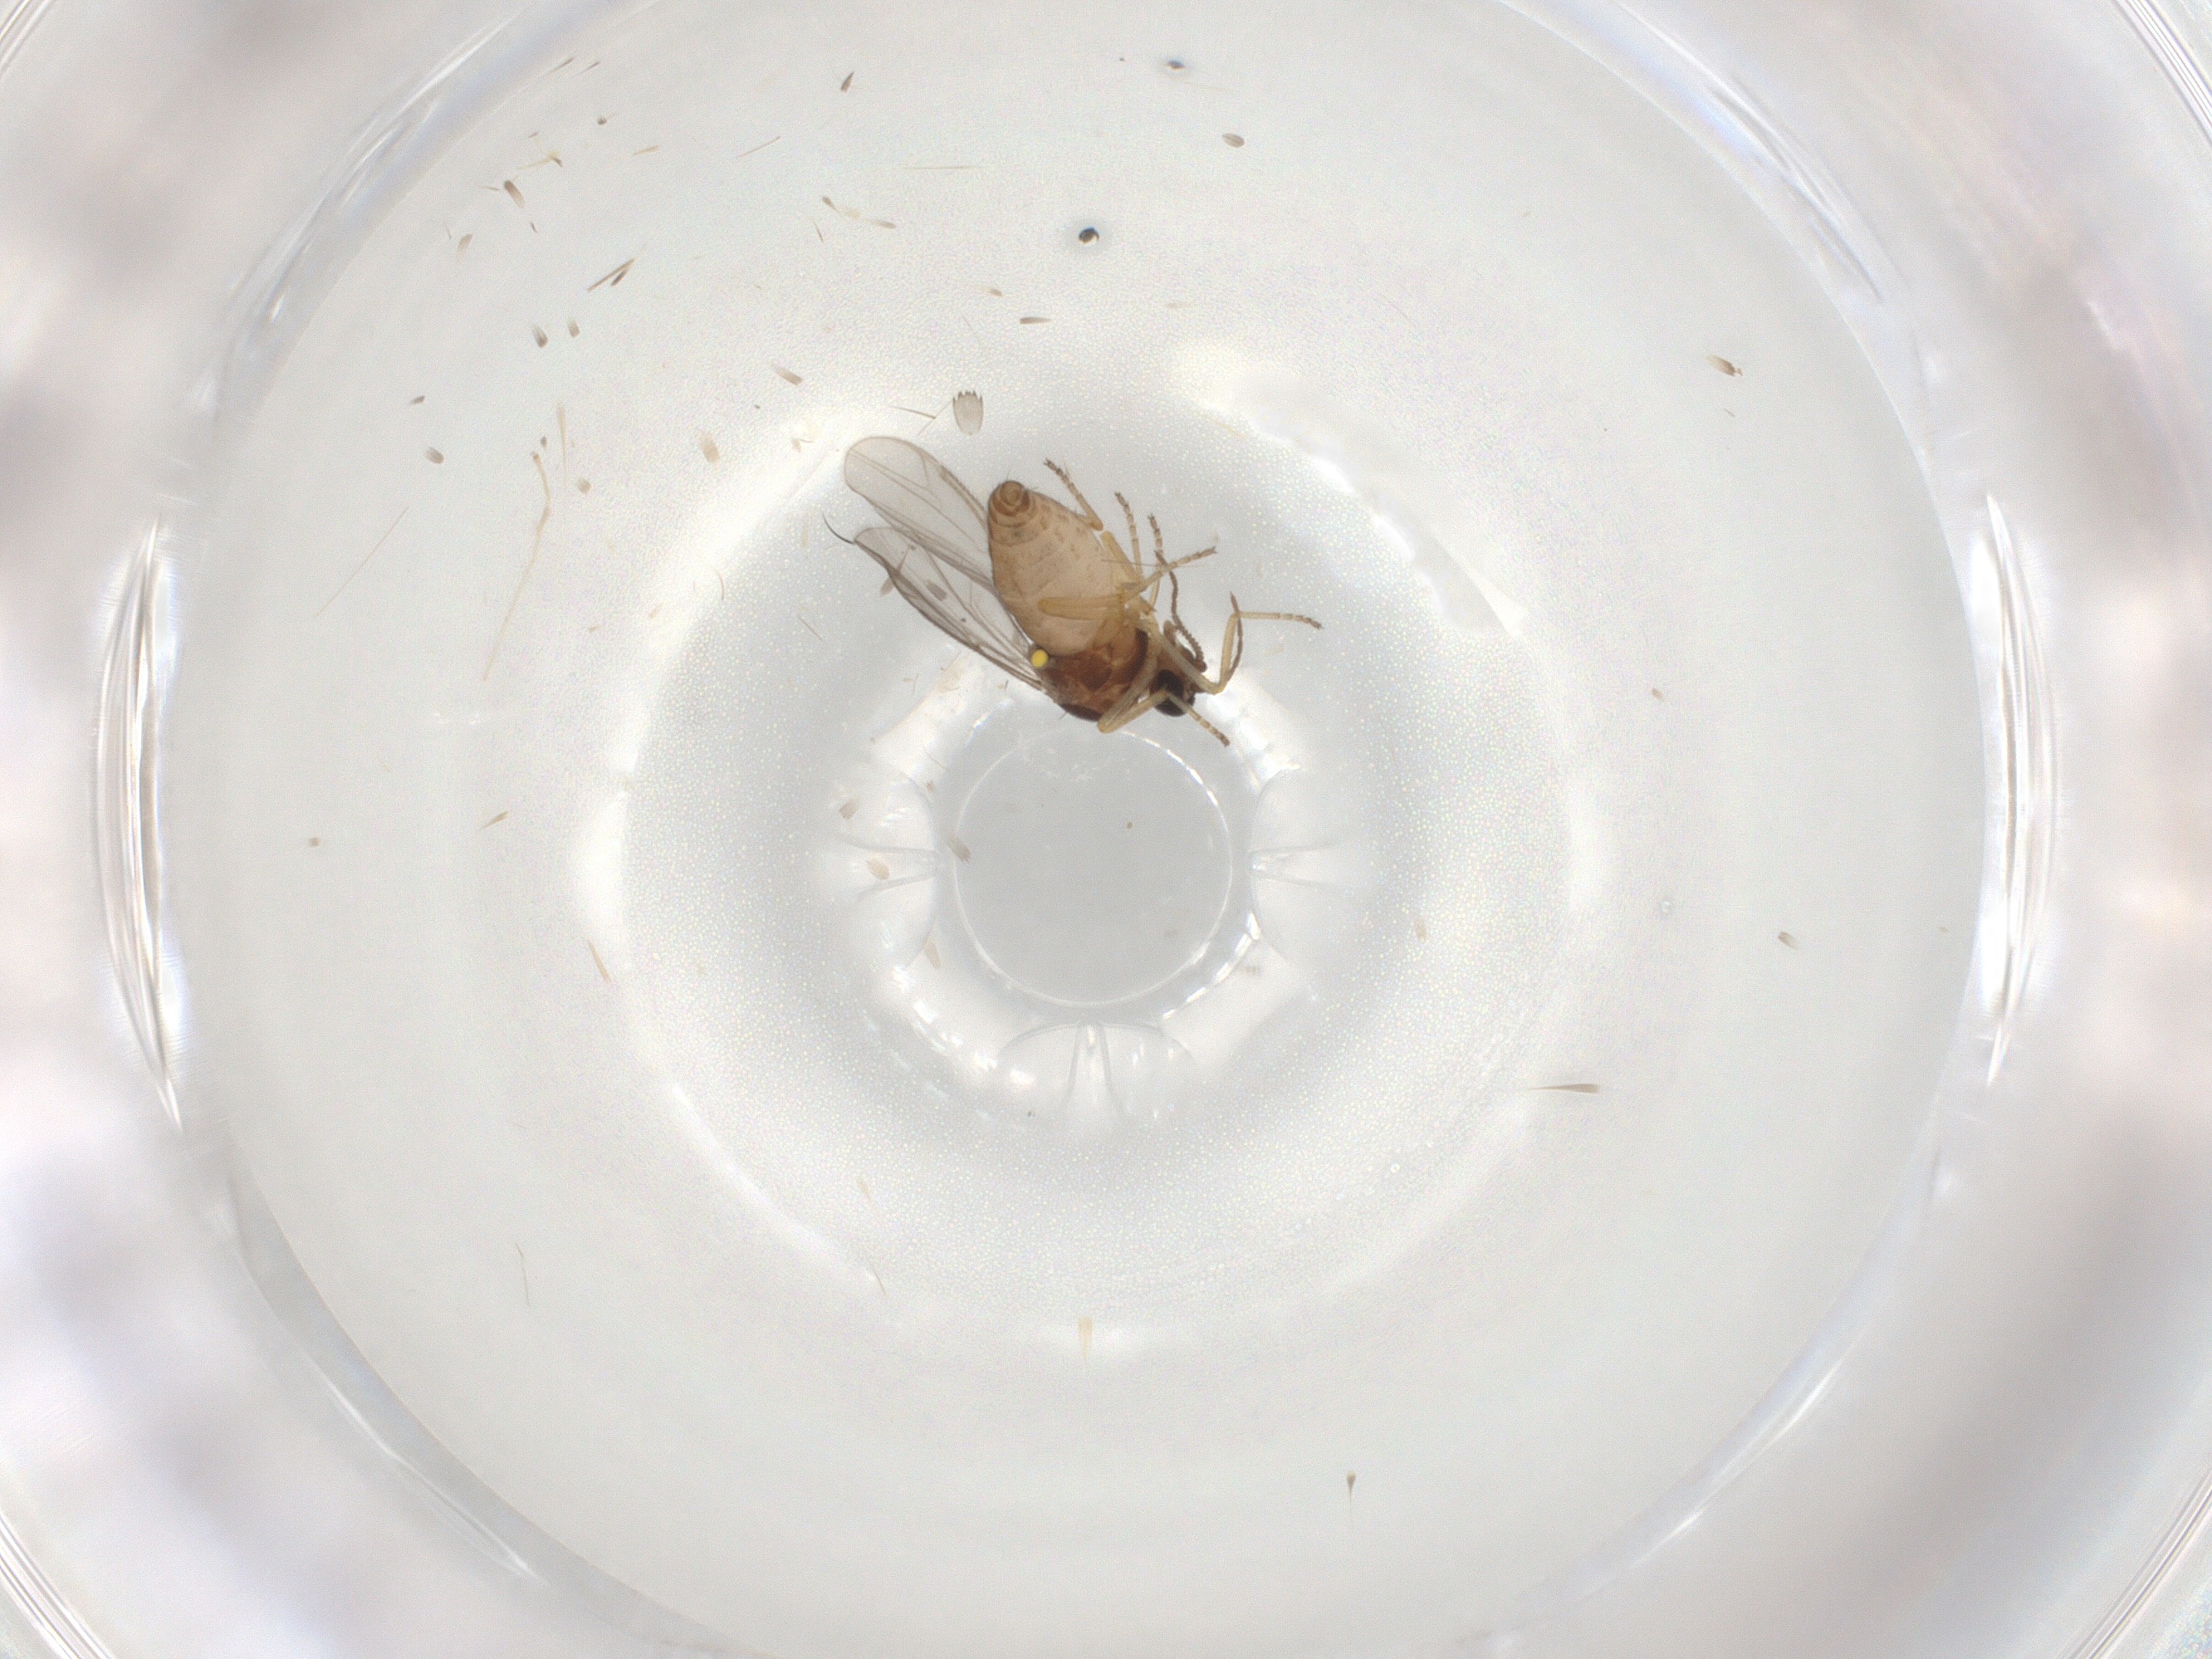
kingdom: Animalia
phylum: Arthropoda
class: Insecta
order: Diptera
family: Ceratopogonidae
